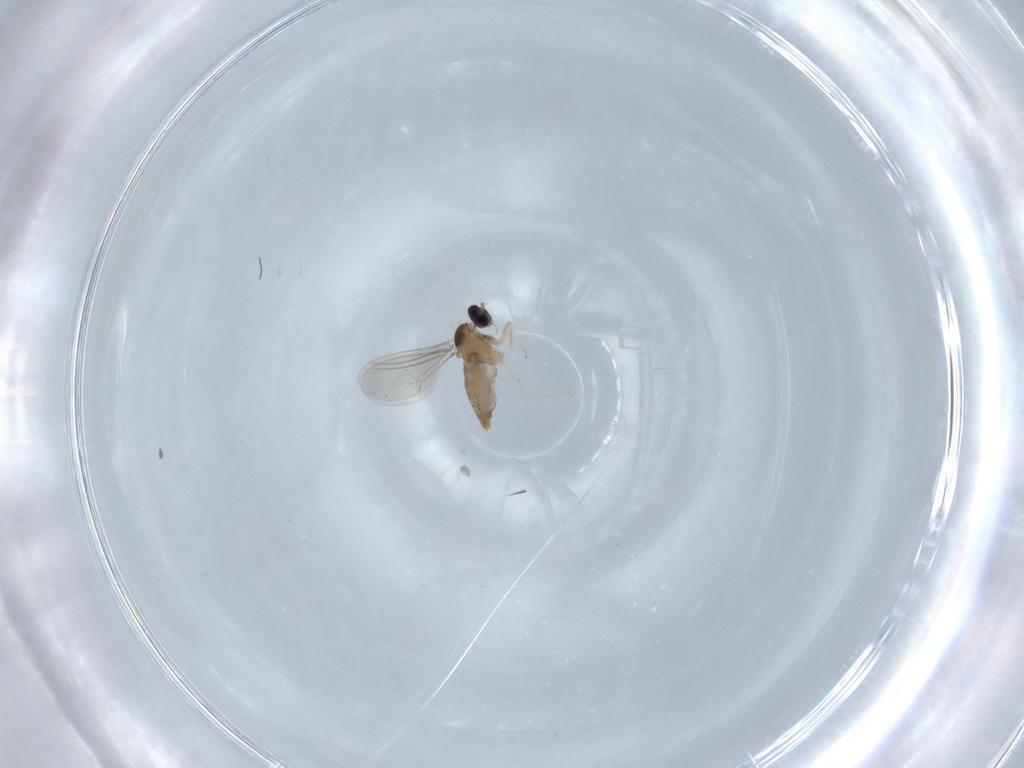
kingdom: Animalia
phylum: Arthropoda
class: Insecta
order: Diptera
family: Cecidomyiidae
